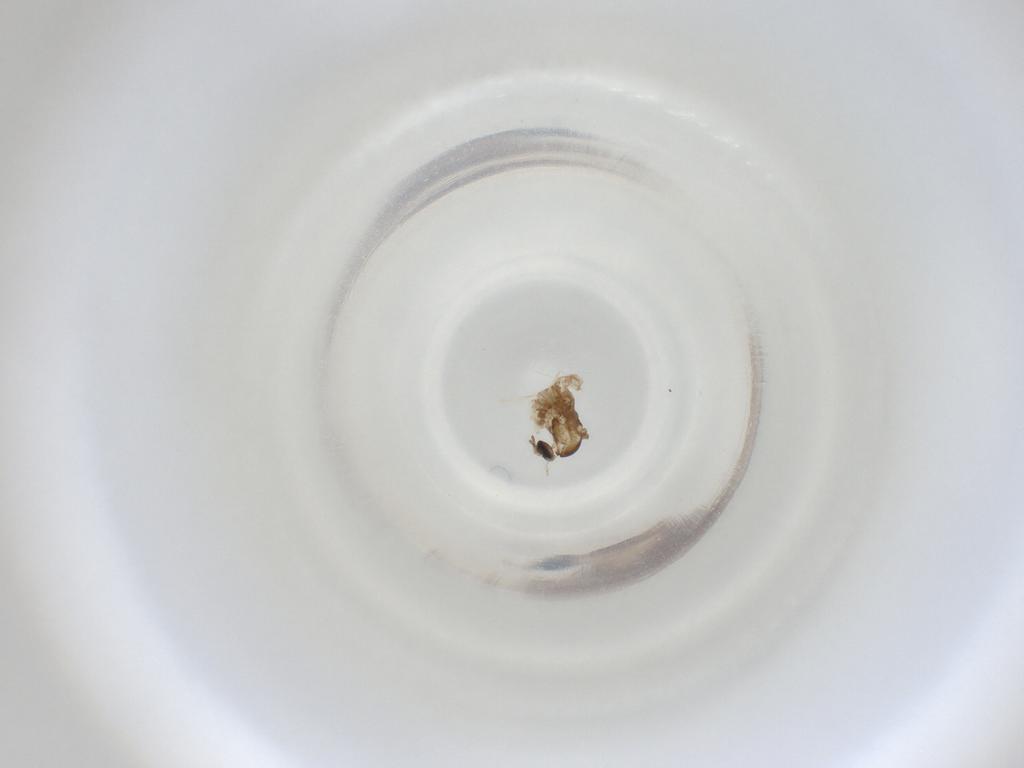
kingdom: Animalia
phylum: Arthropoda
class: Insecta
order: Diptera
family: Cecidomyiidae
